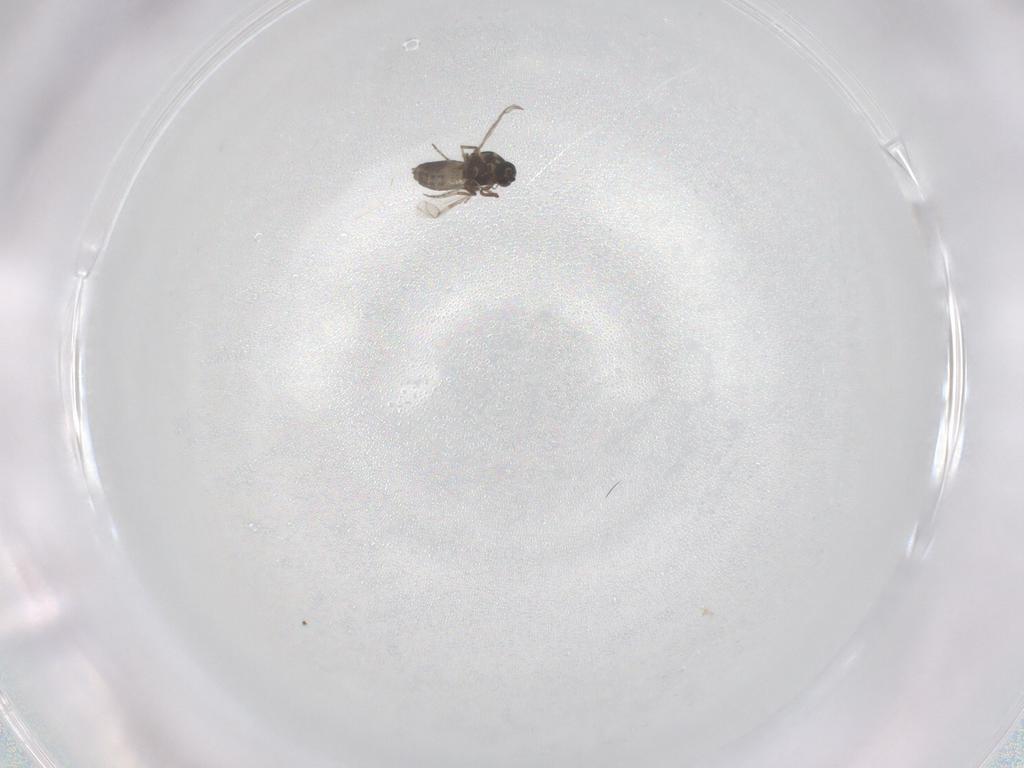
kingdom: Animalia
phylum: Arthropoda
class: Insecta
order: Diptera
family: Ceratopogonidae
